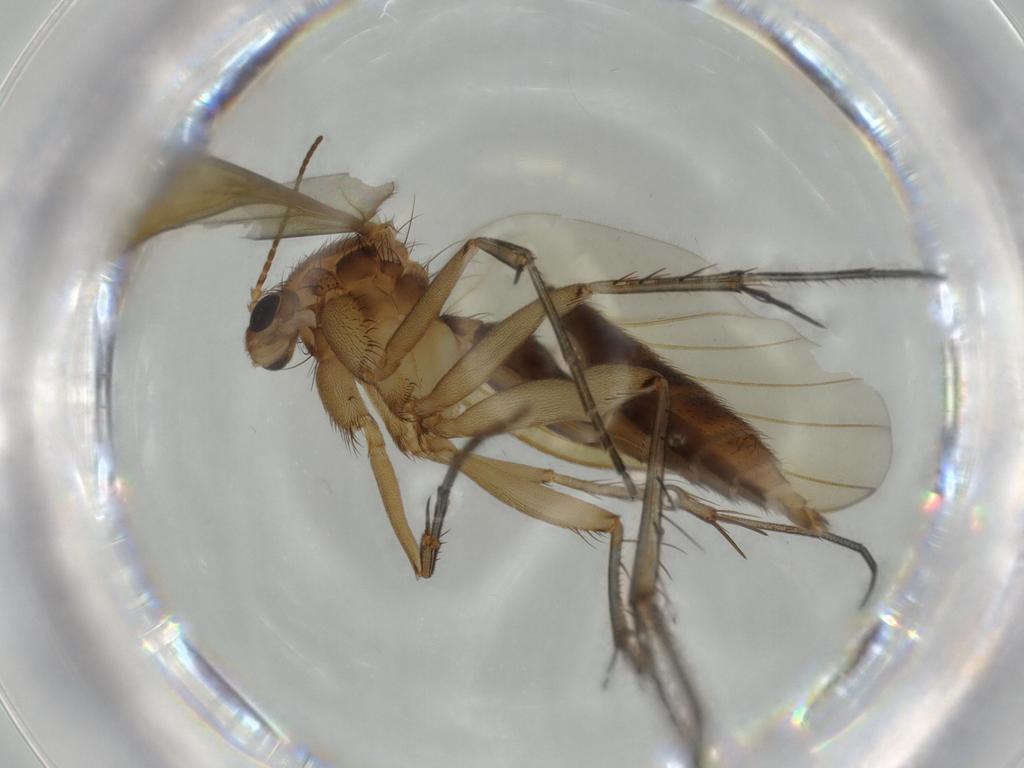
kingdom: Animalia
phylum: Arthropoda
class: Insecta
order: Diptera
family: Mycetophilidae
